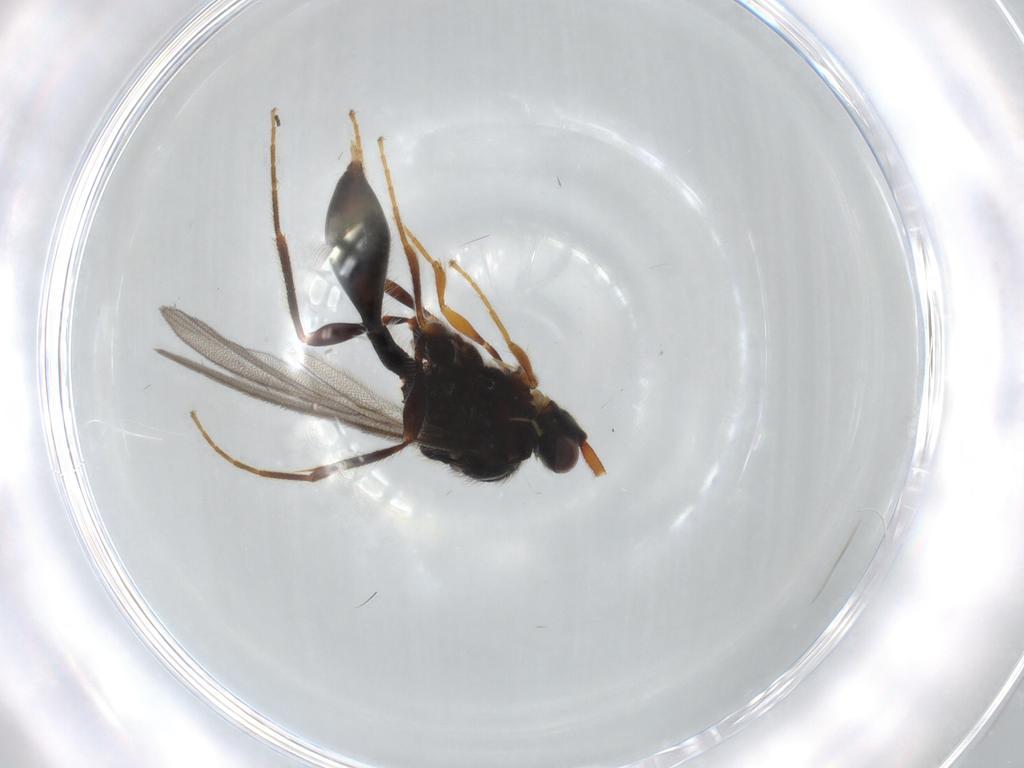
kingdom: Animalia
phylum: Arthropoda
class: Insecta
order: Hymenoptera
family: Diapriidae
